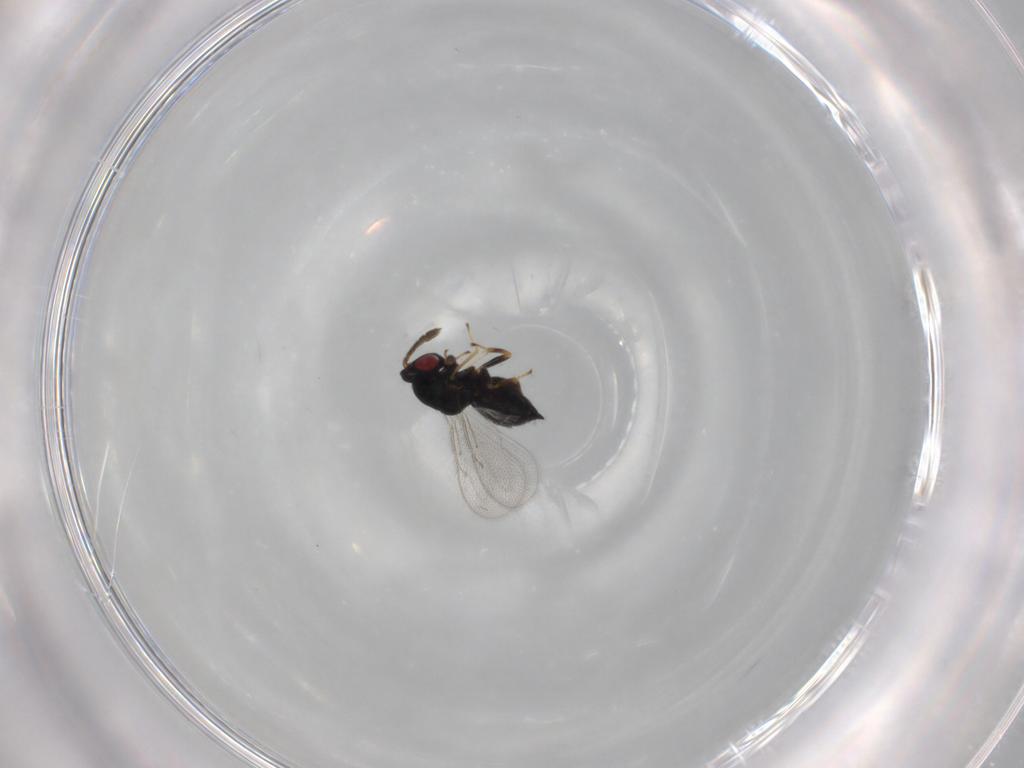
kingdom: Animalia
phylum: Arthropoda
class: Insecta
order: Hymenoptera
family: Eulophidae
